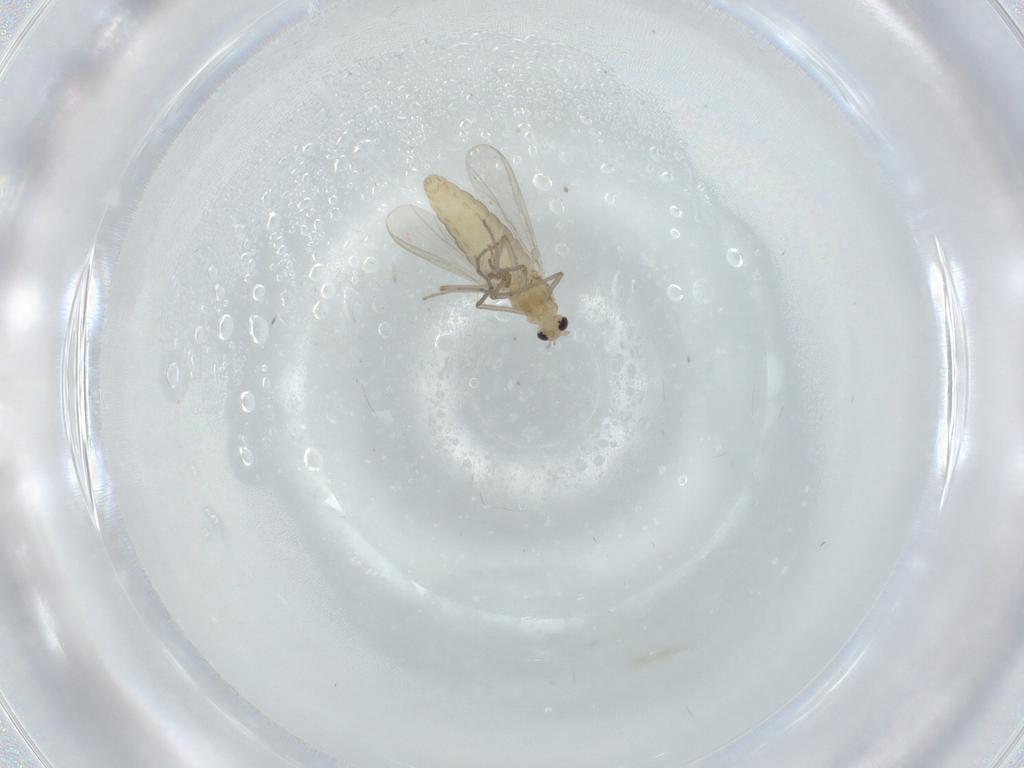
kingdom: Animalia
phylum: Arthropoda
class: Insecta
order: Diptera
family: Chironomidae
